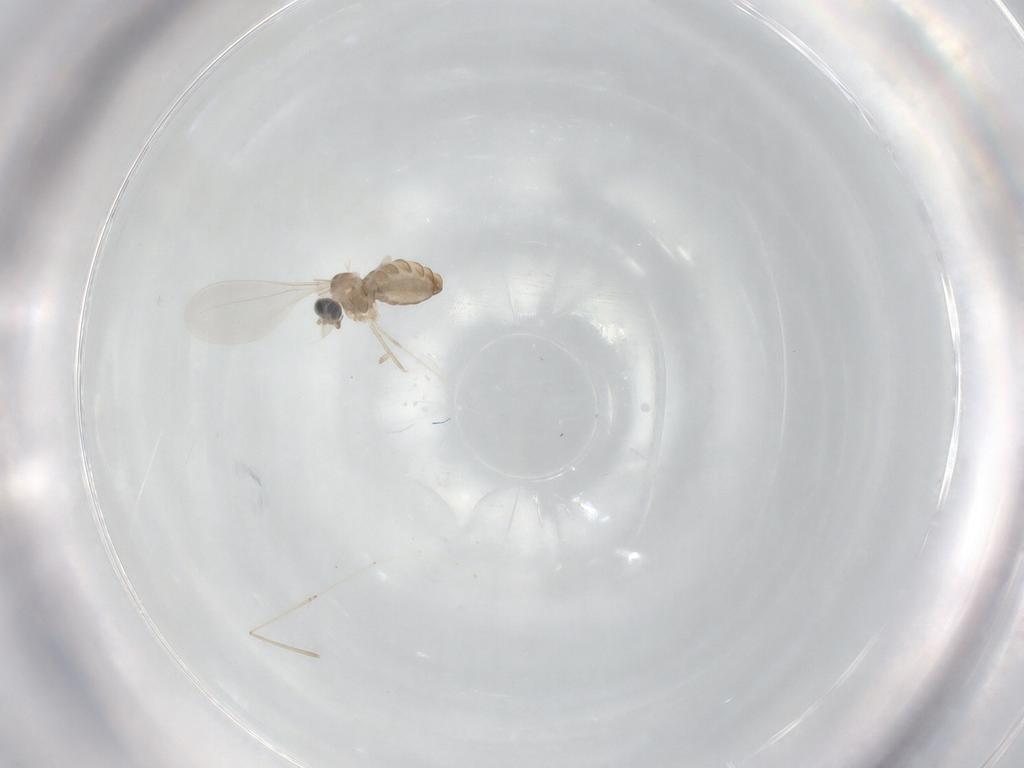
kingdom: Animalia
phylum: Arthropoda
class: Insecta
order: Diptera
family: Cecidomyiidae
